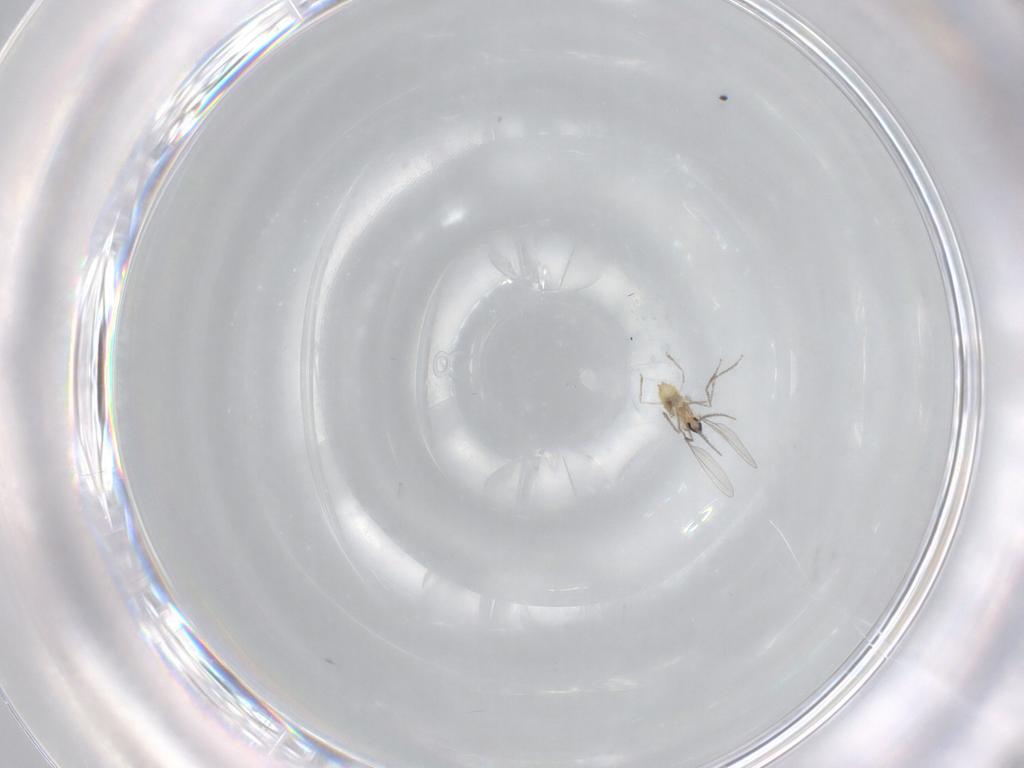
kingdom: Animalia
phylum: Arthropoda
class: Insecta
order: Diptera
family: Cecidomyiidae
